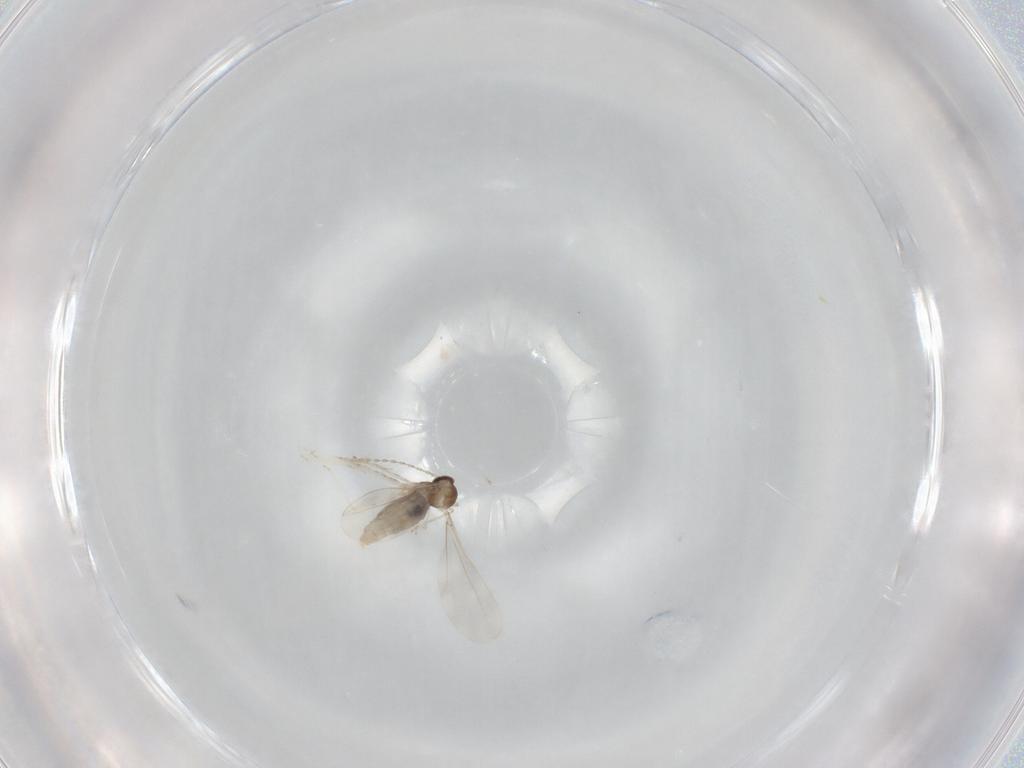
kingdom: Animalia
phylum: Arthropoda
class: Insecta
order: Diptera
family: Cecidomyiidae
